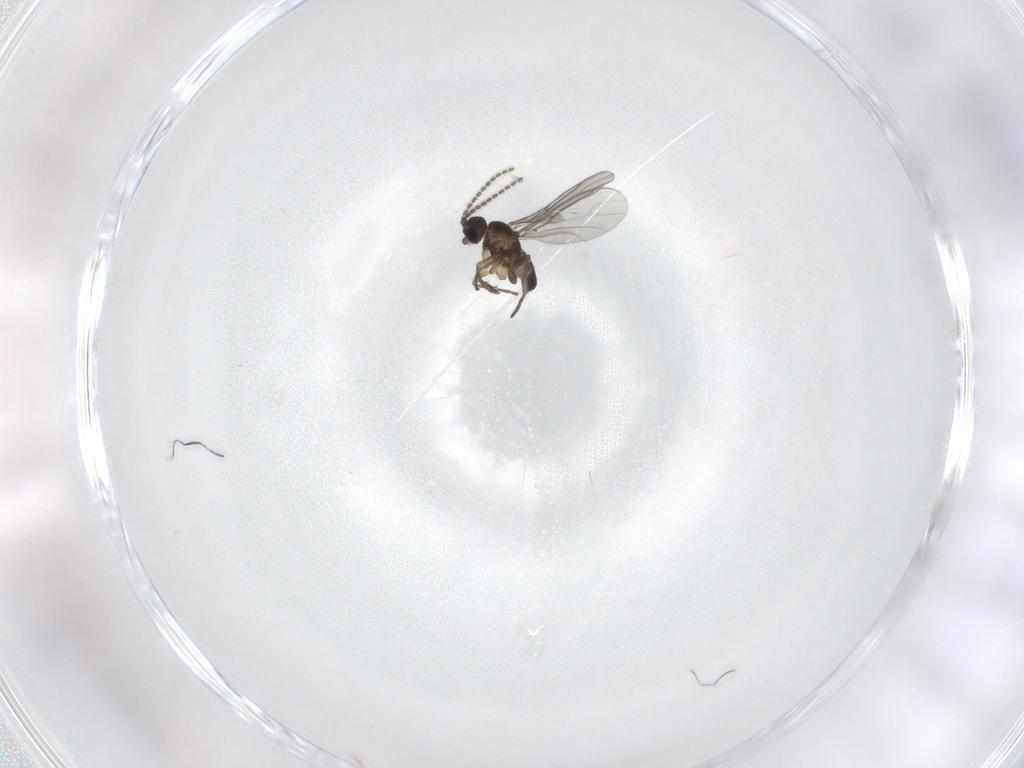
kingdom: Animalia
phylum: Arthropoda
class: Insecta
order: Diptera
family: Sciaridae
